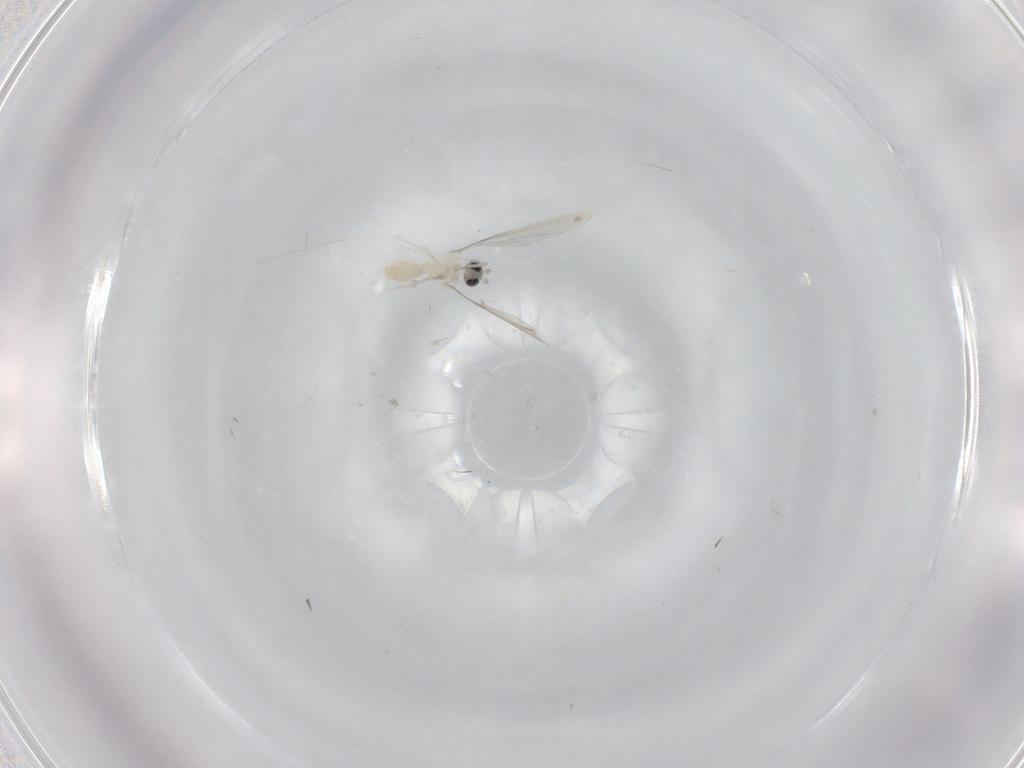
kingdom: Animalia
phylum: Arthropoda
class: Insecta
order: Diptera
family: Cecidomyiidae
